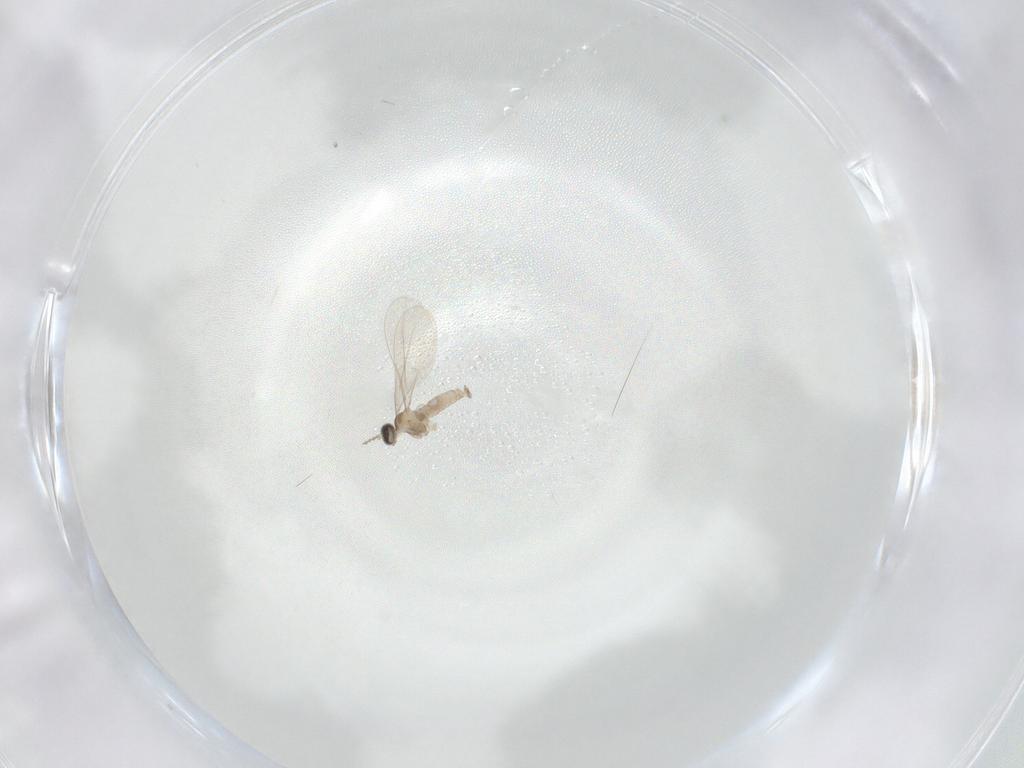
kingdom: Animalia
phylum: Arthropoda
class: Insecta
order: Diptera
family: Cecidomyiidae
